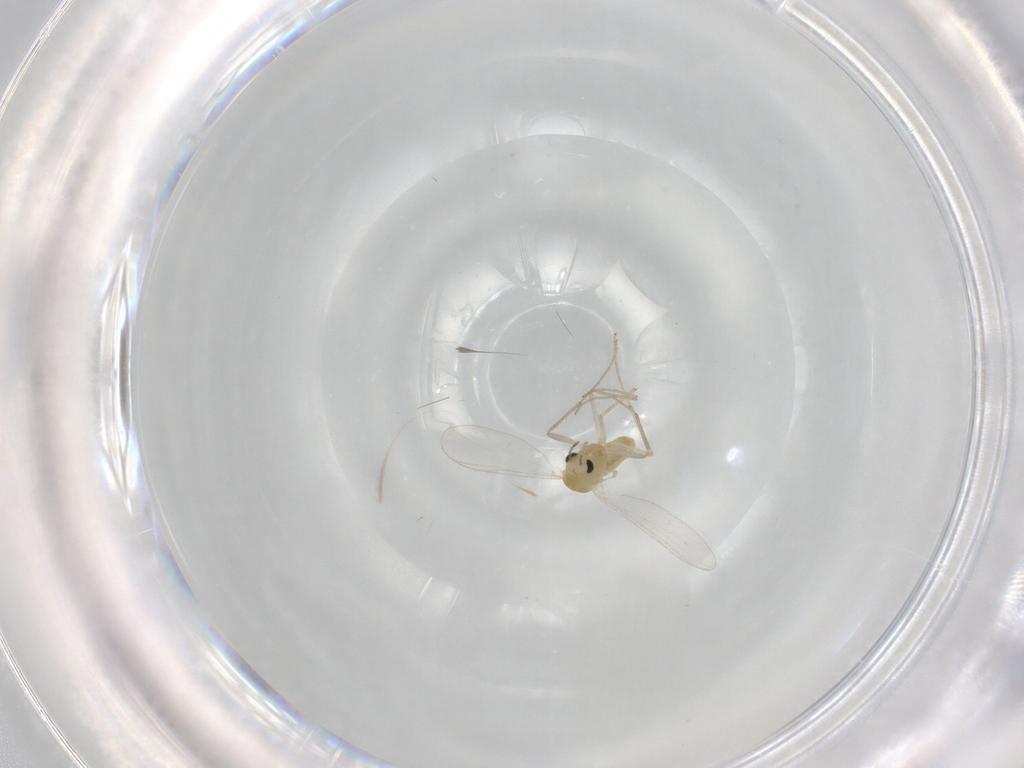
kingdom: Animalia
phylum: Arthropoda
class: Insecta
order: Diptera
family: Chironomidae
